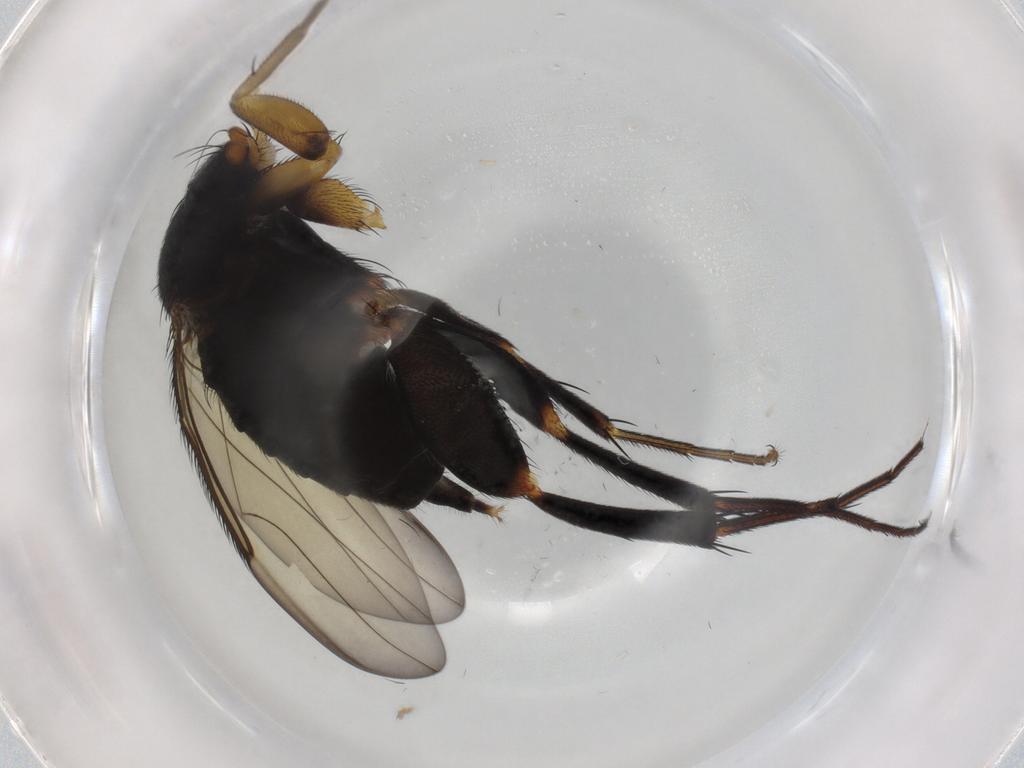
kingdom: Animalia
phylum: Arthropoda
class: Insecta
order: Diptera
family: Phoridae
